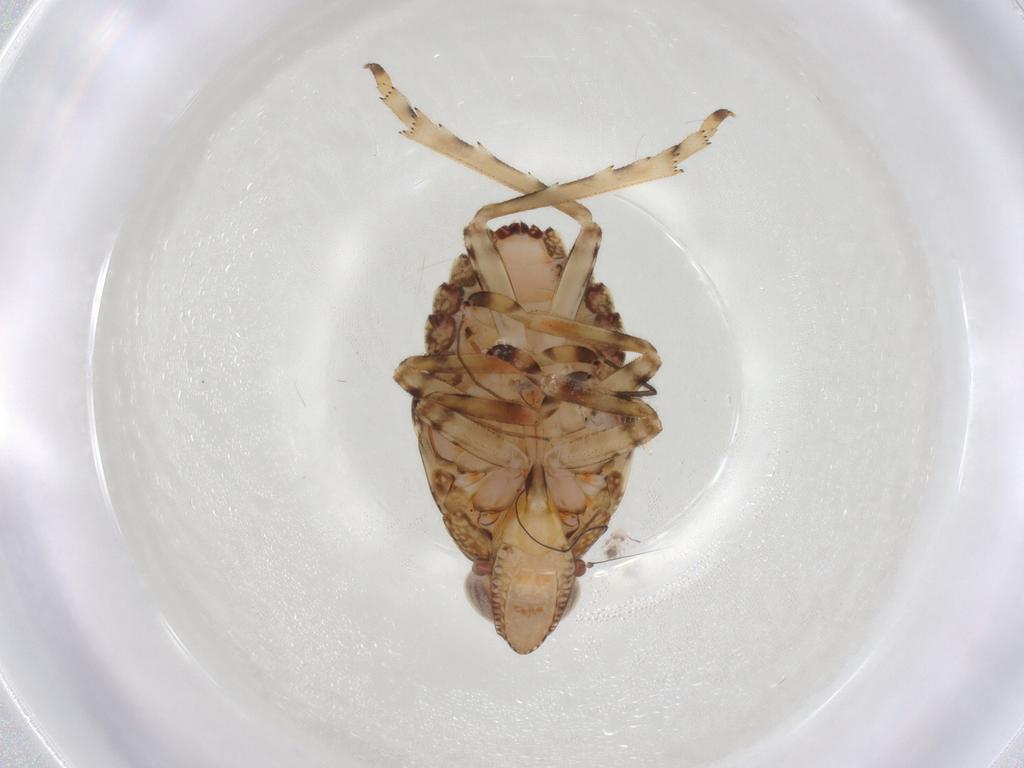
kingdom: Animalia
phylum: Arthropoda
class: Insecta
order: Hemiptera
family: Tropiduchidae
